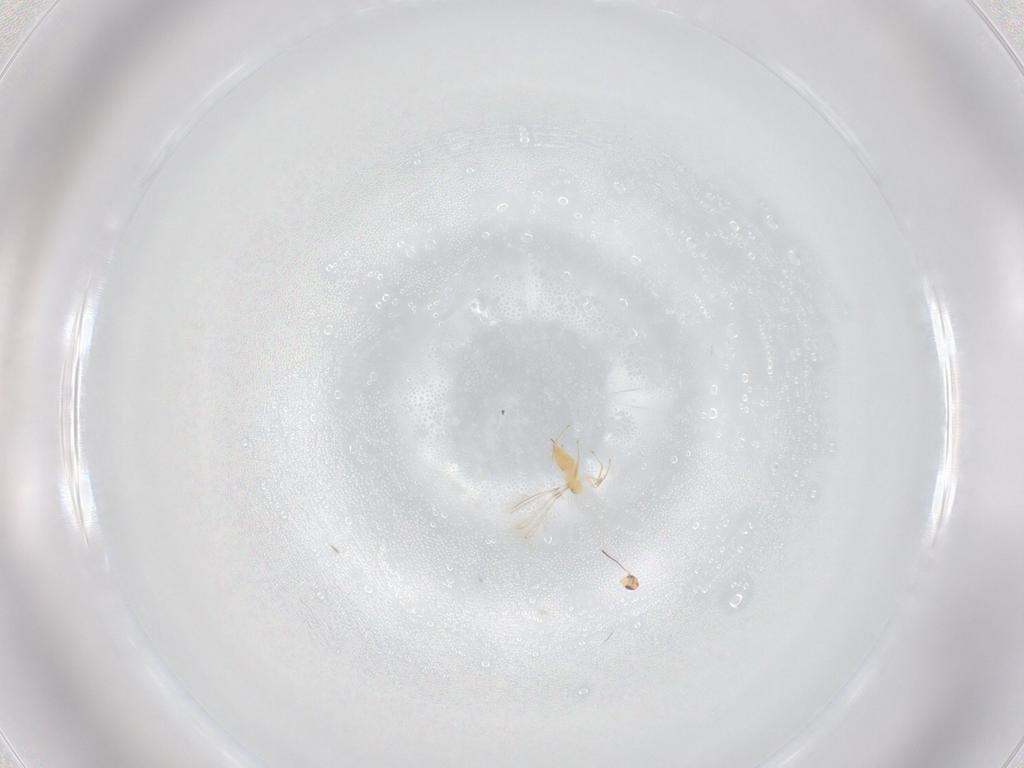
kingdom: Animalia
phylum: Arthropoda
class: Insecta
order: Hymenoptera
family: Mymaridae
